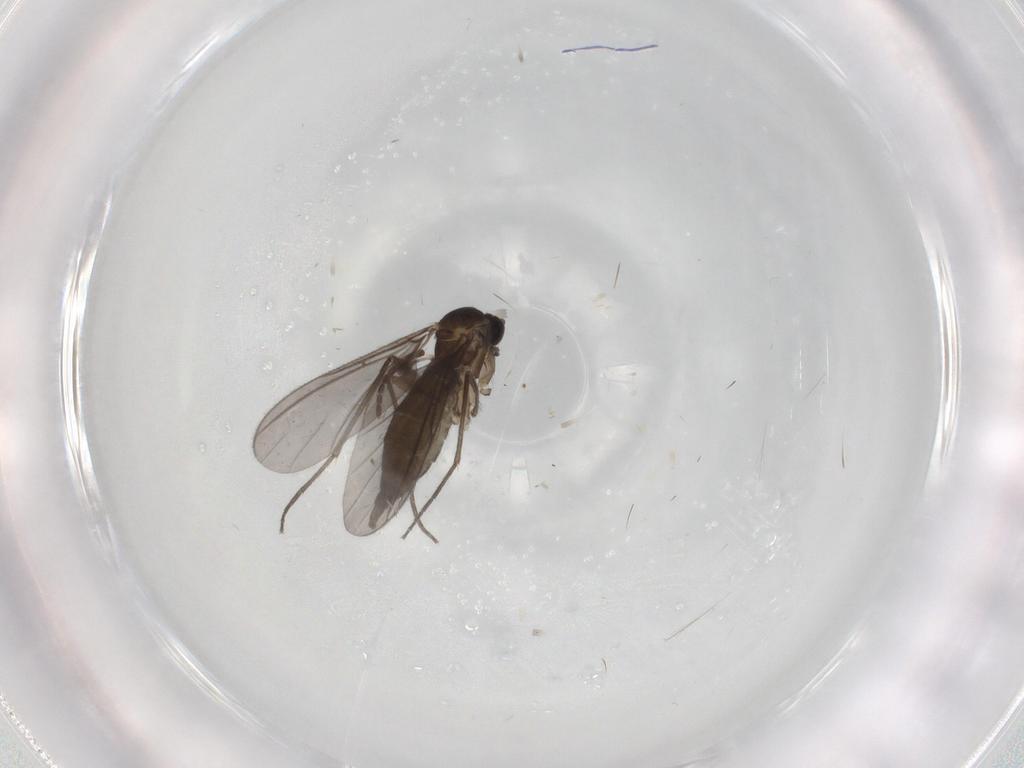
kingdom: Animalia
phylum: Arthropoda
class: Insecta
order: Diptera
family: Sciaridae
